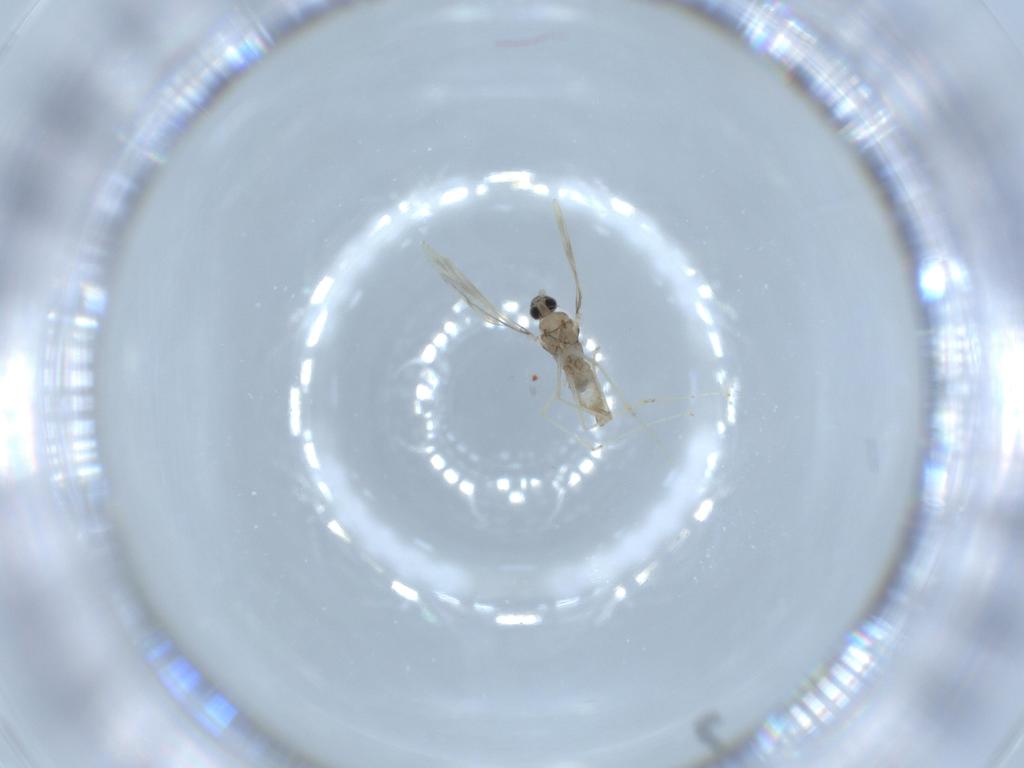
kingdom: Animalia
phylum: Arthropoda
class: Insecta
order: Diptera
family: Cecidomyiidae
